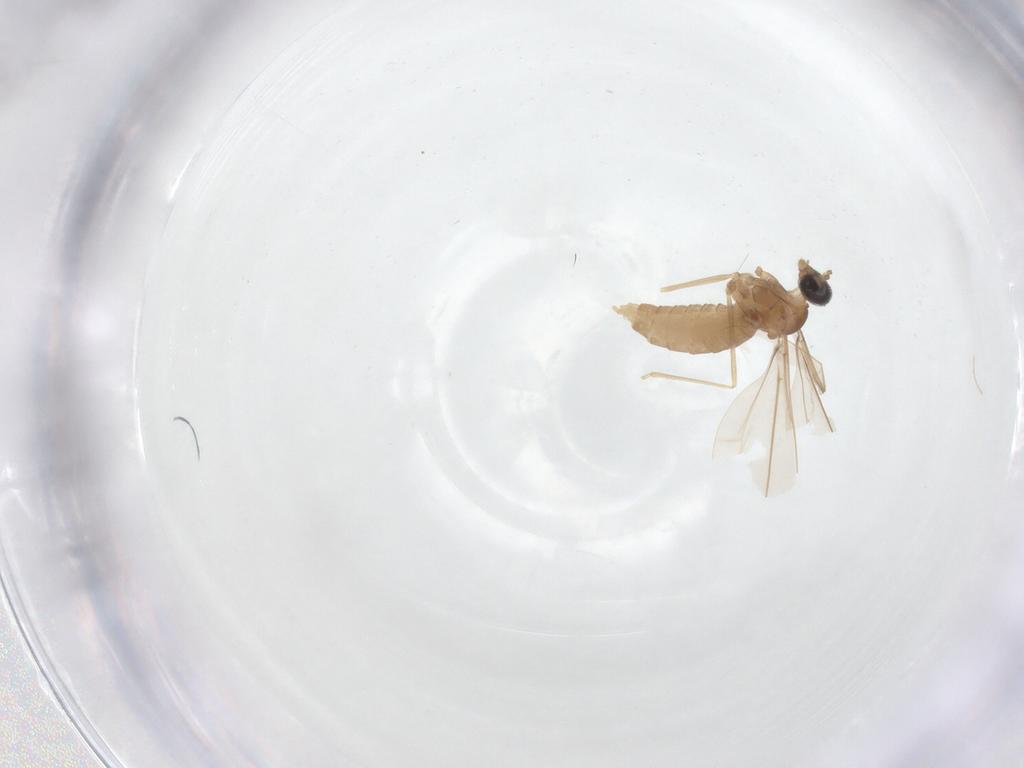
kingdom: Animalia
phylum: Arthropoda
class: Insecta
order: Diptera
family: Cecidomyiidae
